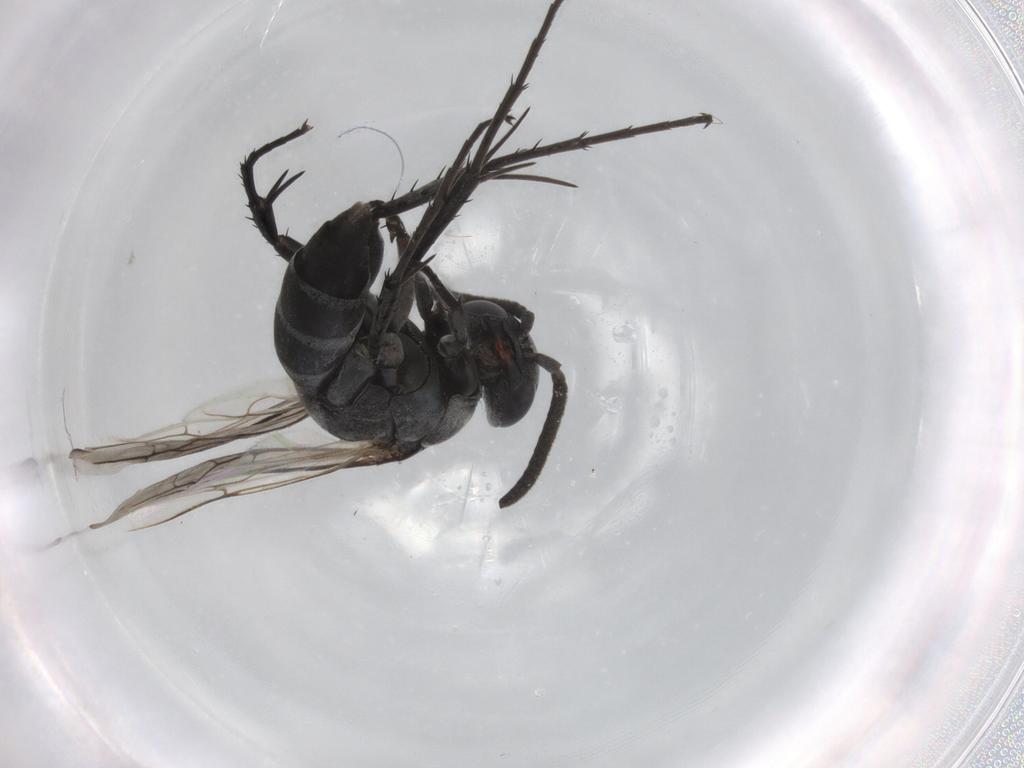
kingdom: Animalia
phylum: Arthropoda
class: Insecta
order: Hymenoptera
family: Pompilidae
